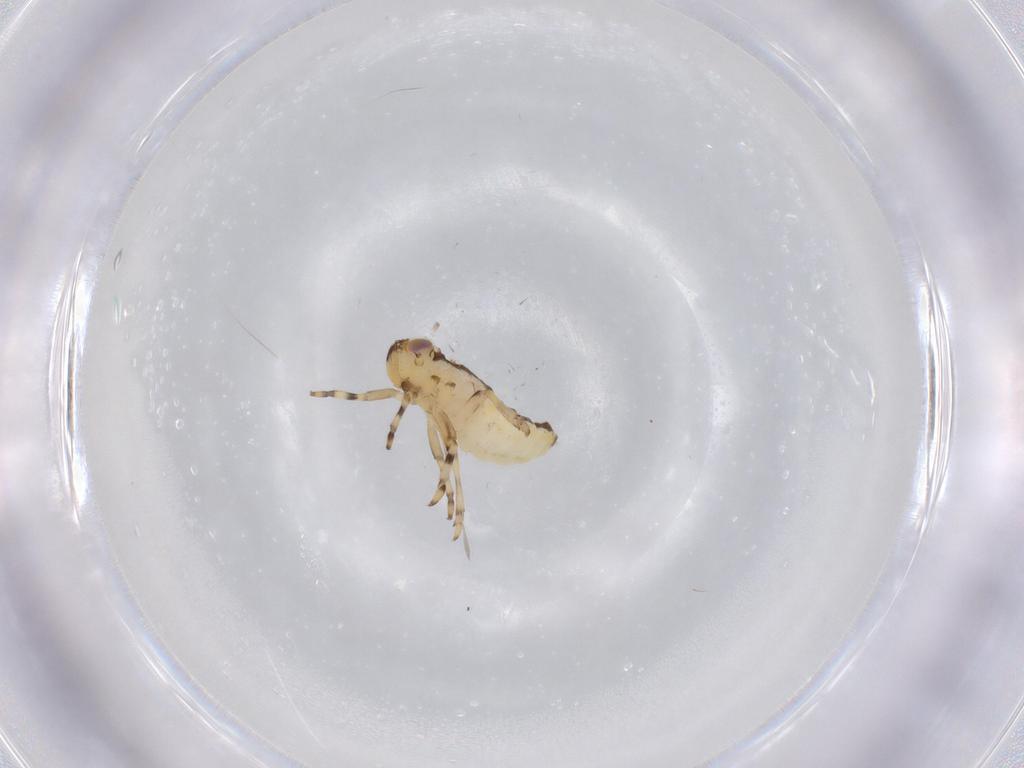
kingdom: Animalia
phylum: Arthropoda
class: Insecta
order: Hemiptera
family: Issidae
